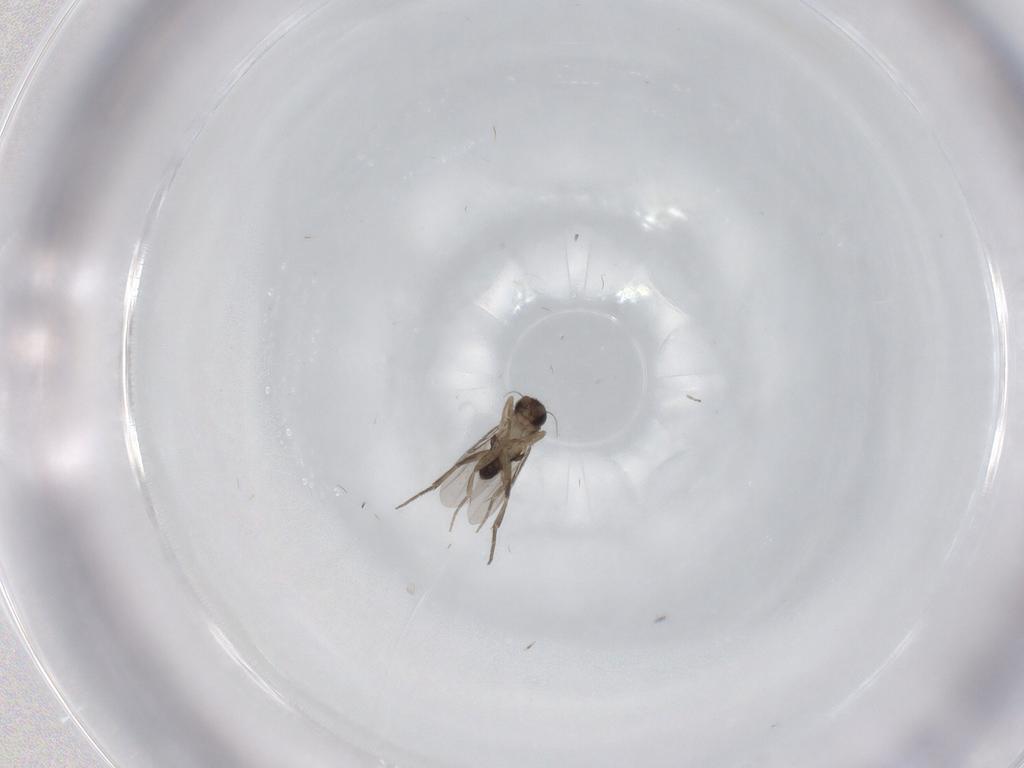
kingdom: Animalia
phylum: Arthropoda
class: Insecta
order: Diptera
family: Phoridae
